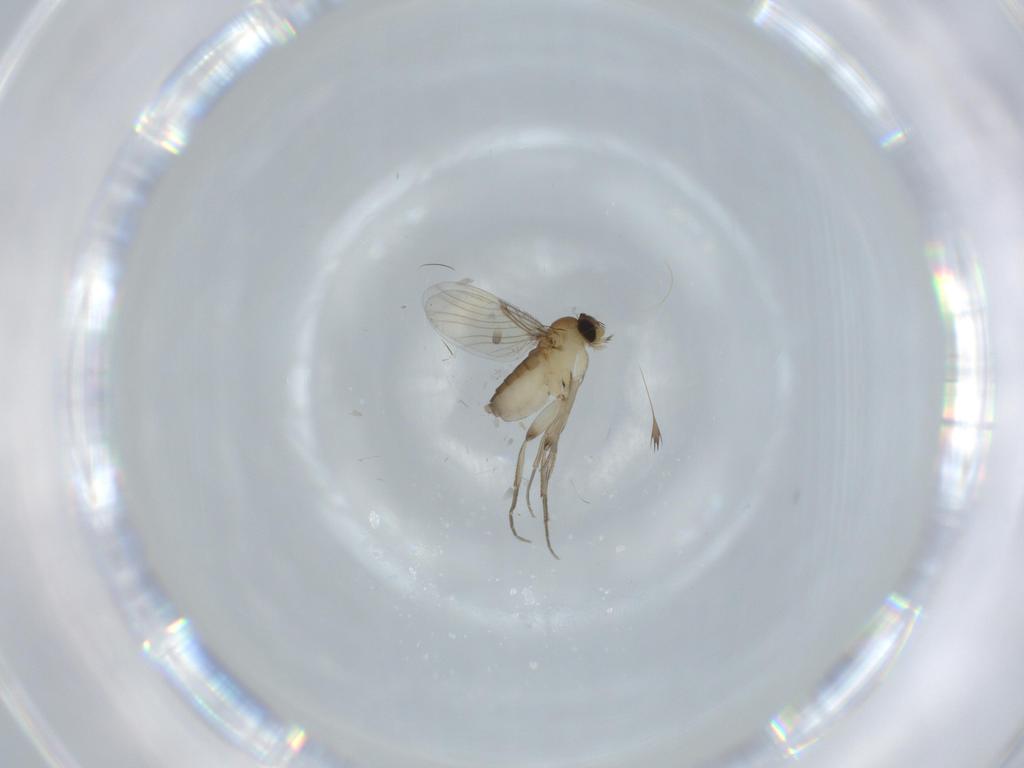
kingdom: Animalia
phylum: Arthropoda
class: Insecta
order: Diptera
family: Phoridae
